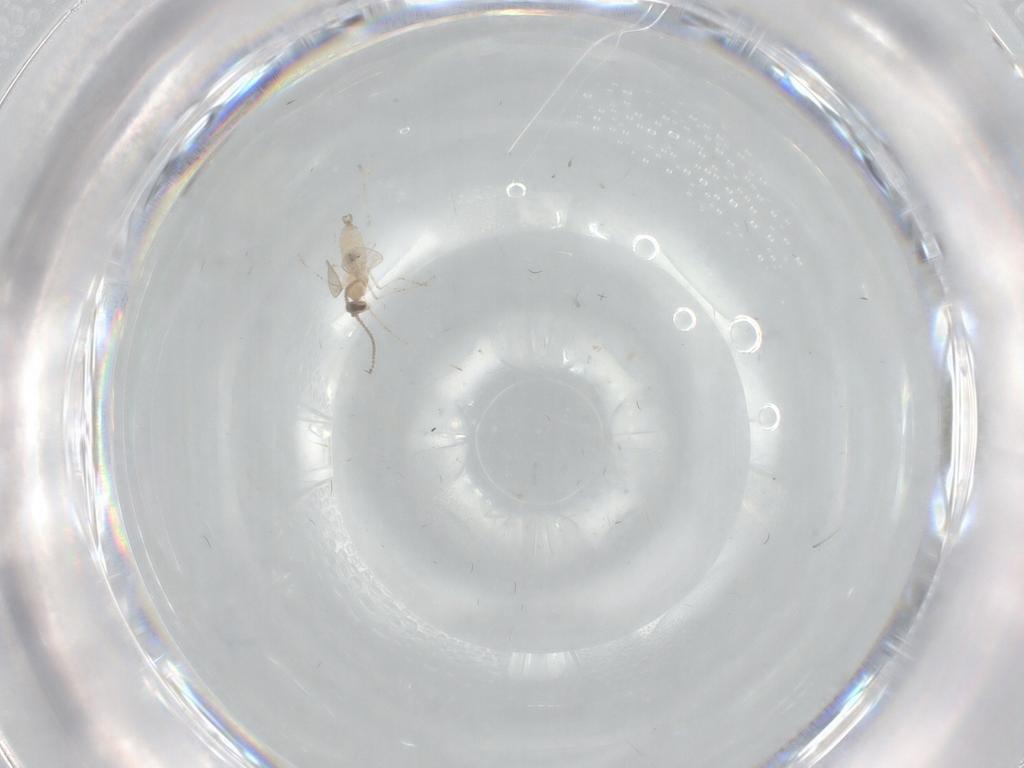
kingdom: Animalia
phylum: Arthropoda
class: Insecta
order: Diptera
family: Cecidomyiidae
